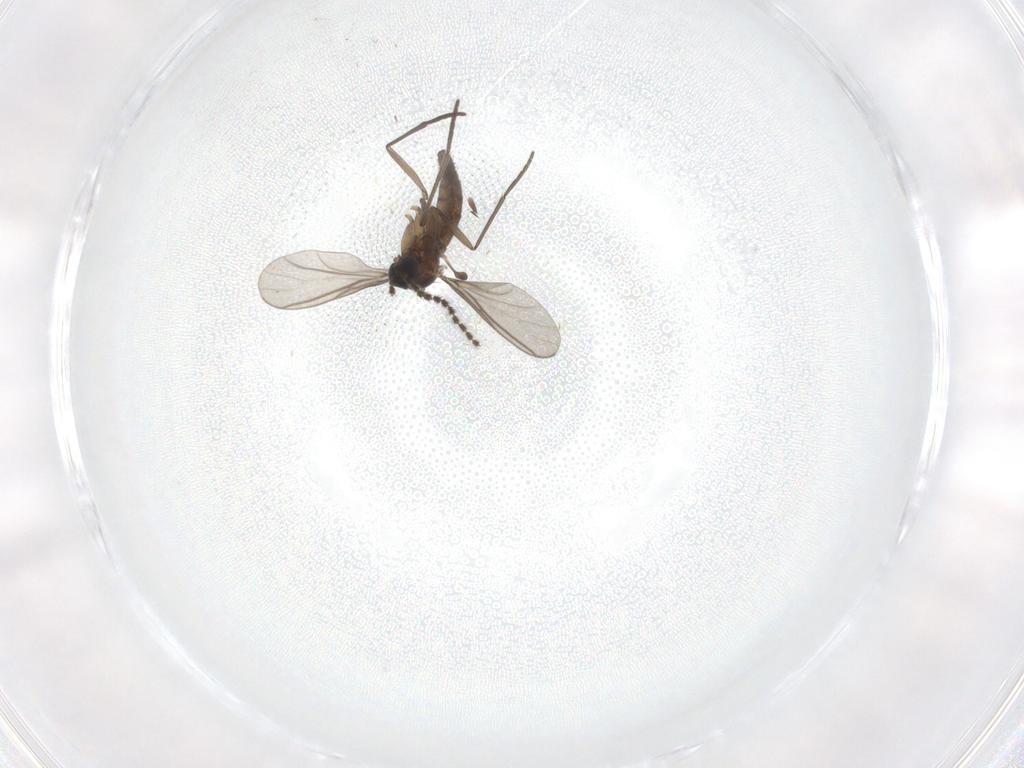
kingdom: Animalia
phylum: Arthropoda
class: Insecta
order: Diptera
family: Chironomidae
